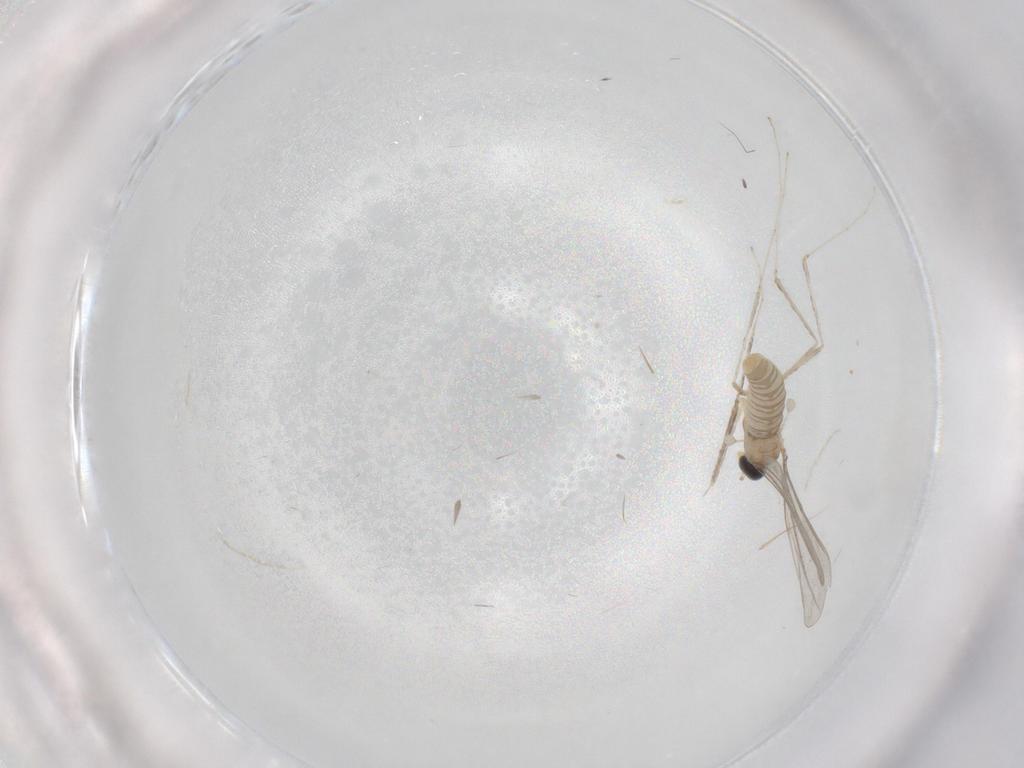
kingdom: Animalia
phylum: Arthropoda
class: Insecta
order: Diptera
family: Cecidomyiidae
